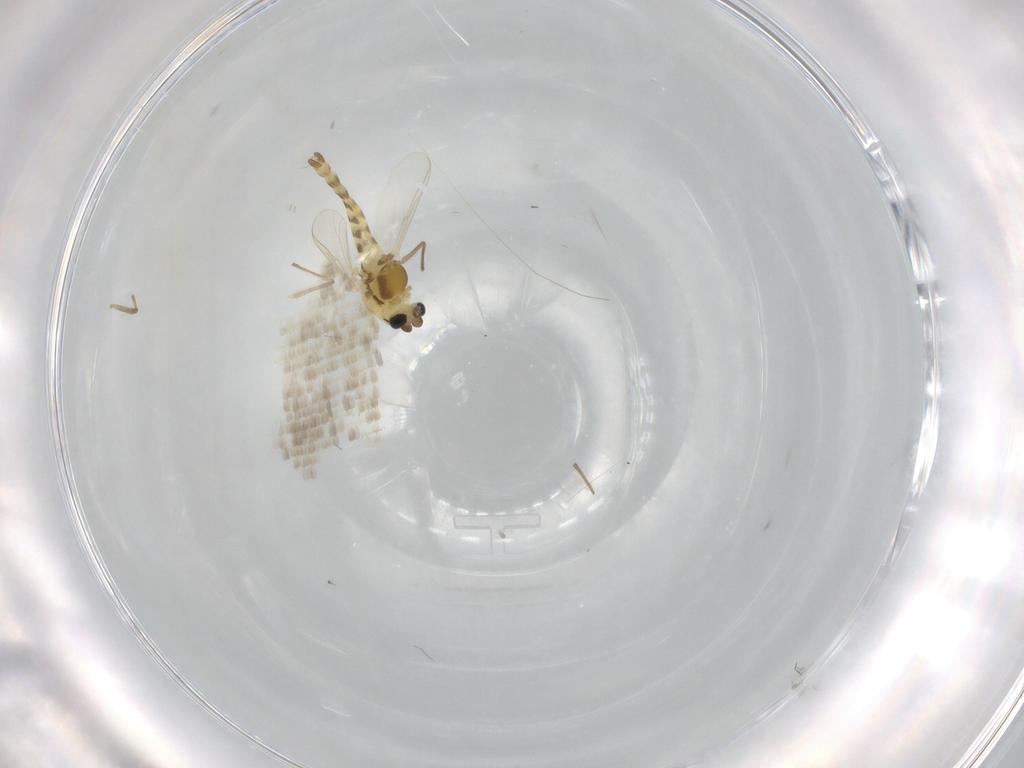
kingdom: Animalia
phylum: Arthropoda
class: Insecta
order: Diptera
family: Chironomidae
